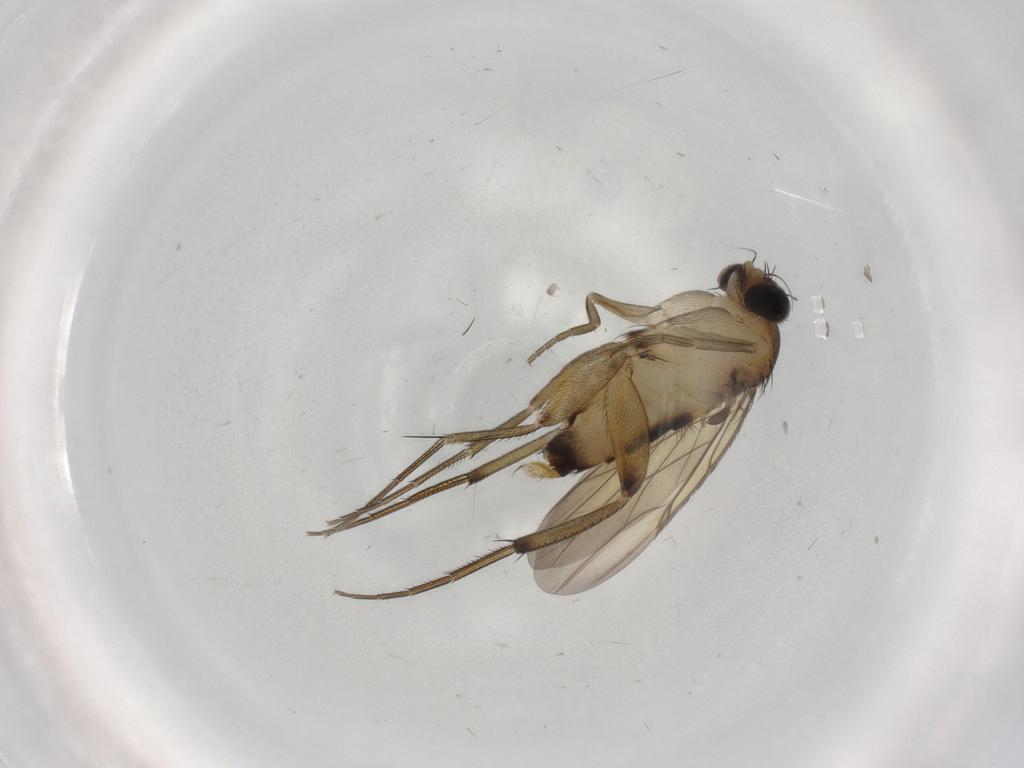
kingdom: Animalia
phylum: Arthropoda
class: Insecta
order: Diptera
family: Phoridae
